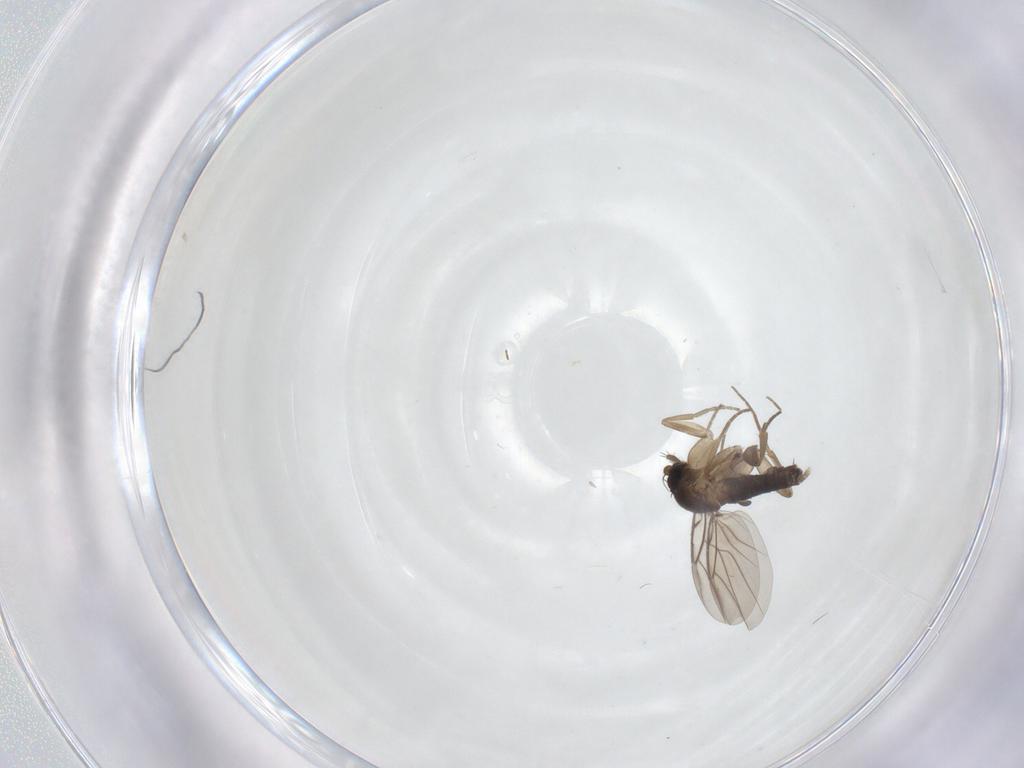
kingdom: Animalia
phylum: Arthropoda
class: Insecta
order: Diptera
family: Phoridae
